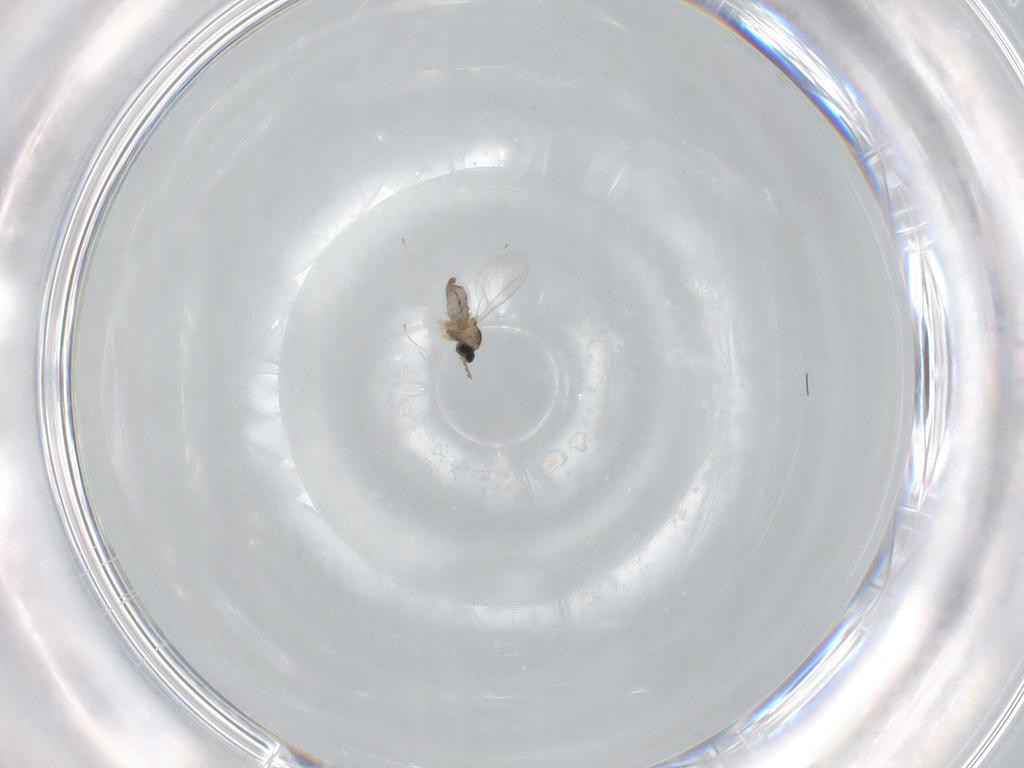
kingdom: Animalia
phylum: Arthropoda
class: Insecta
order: Diptera
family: Cecidomyiidae
